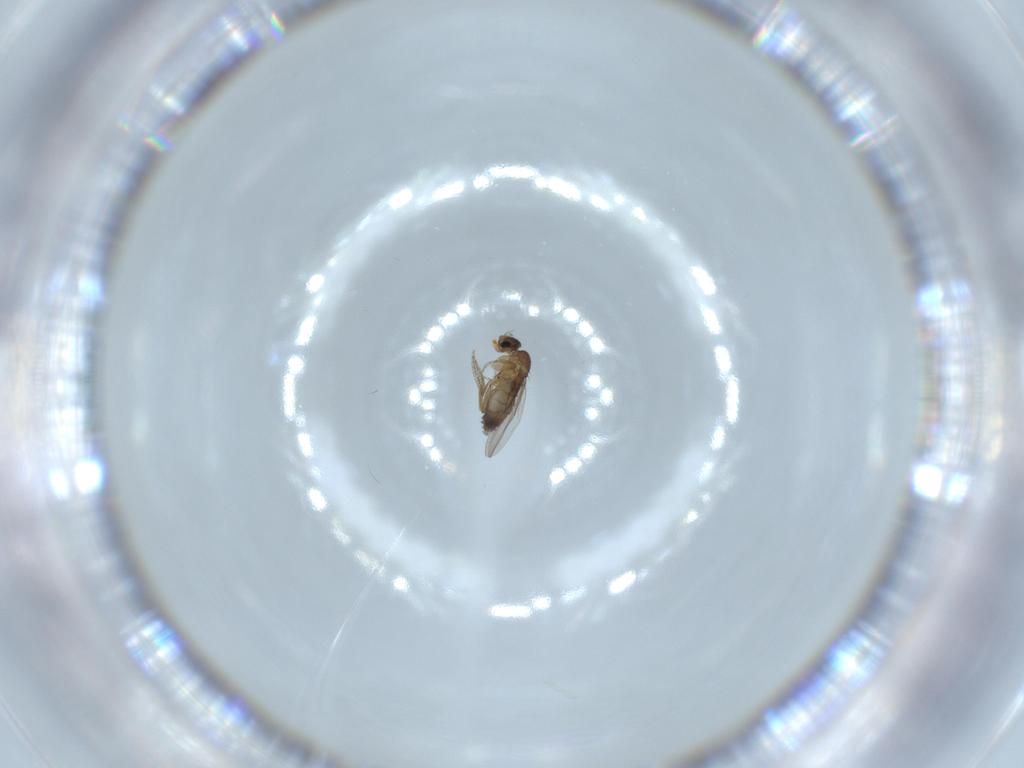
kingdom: Animalia
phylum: Arthropoda
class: Insecta
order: Diptera
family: Phoridae
